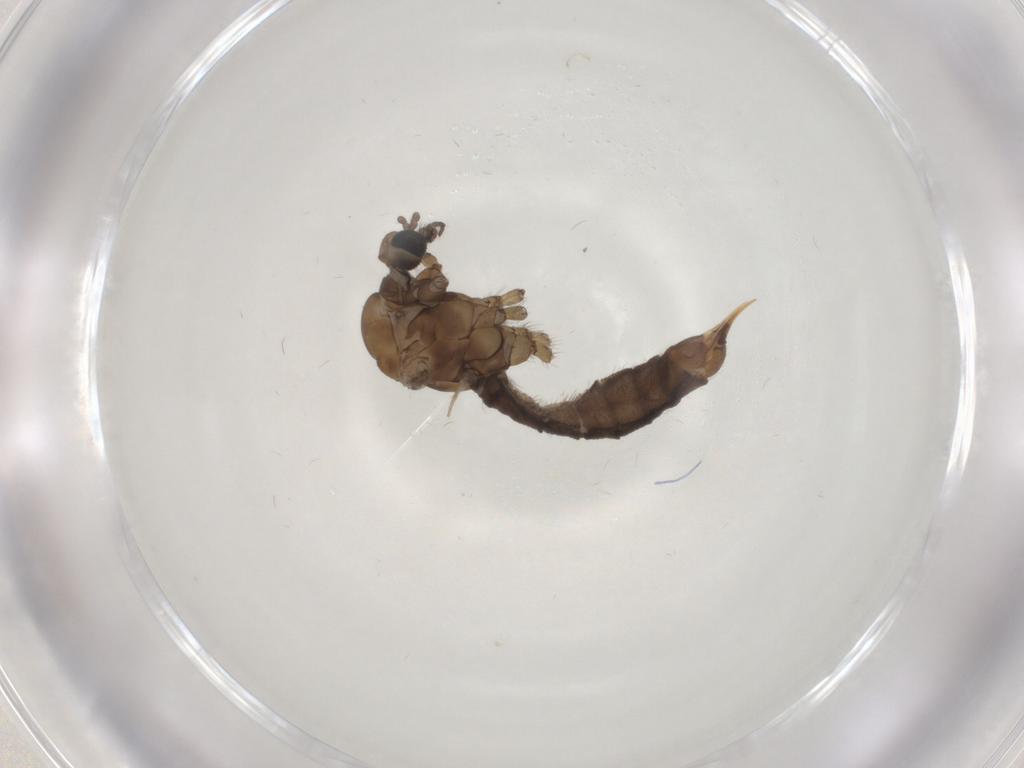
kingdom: Animalia
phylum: Arthropoda
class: Insecta
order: Diptera
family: Limoniidae
